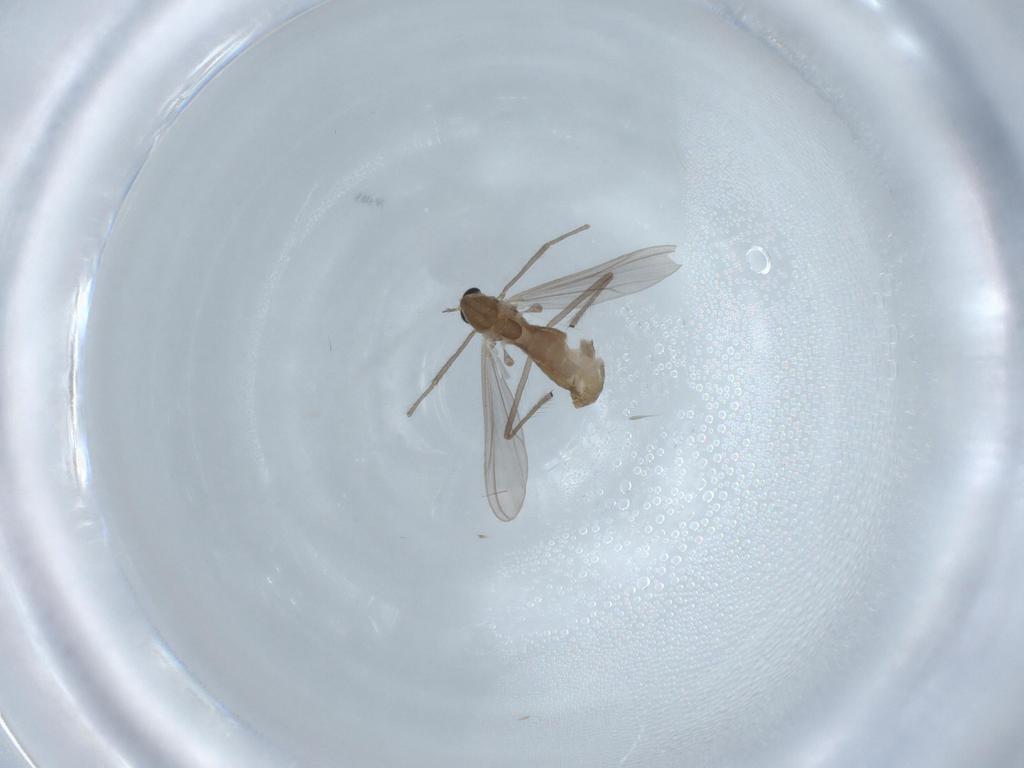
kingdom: Animalia
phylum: Arthropoda
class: Insecta
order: Diptera
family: Chironomidae
